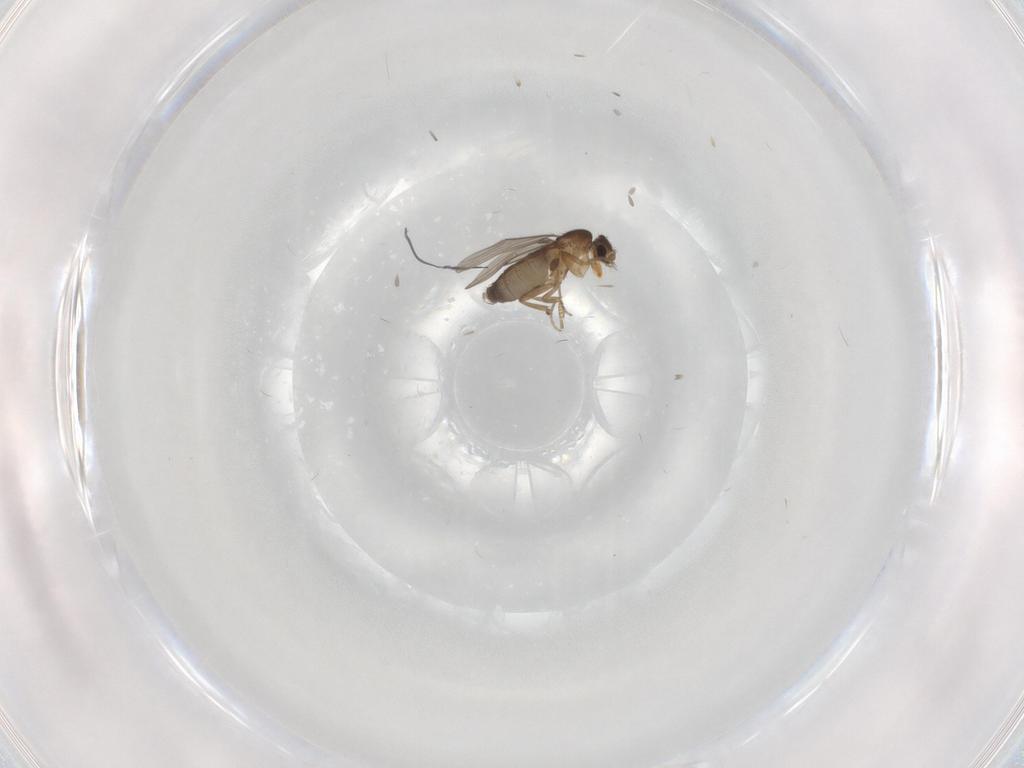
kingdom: Animalia
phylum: Arthropoda
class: Insecta
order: Diptera
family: Phoridae
